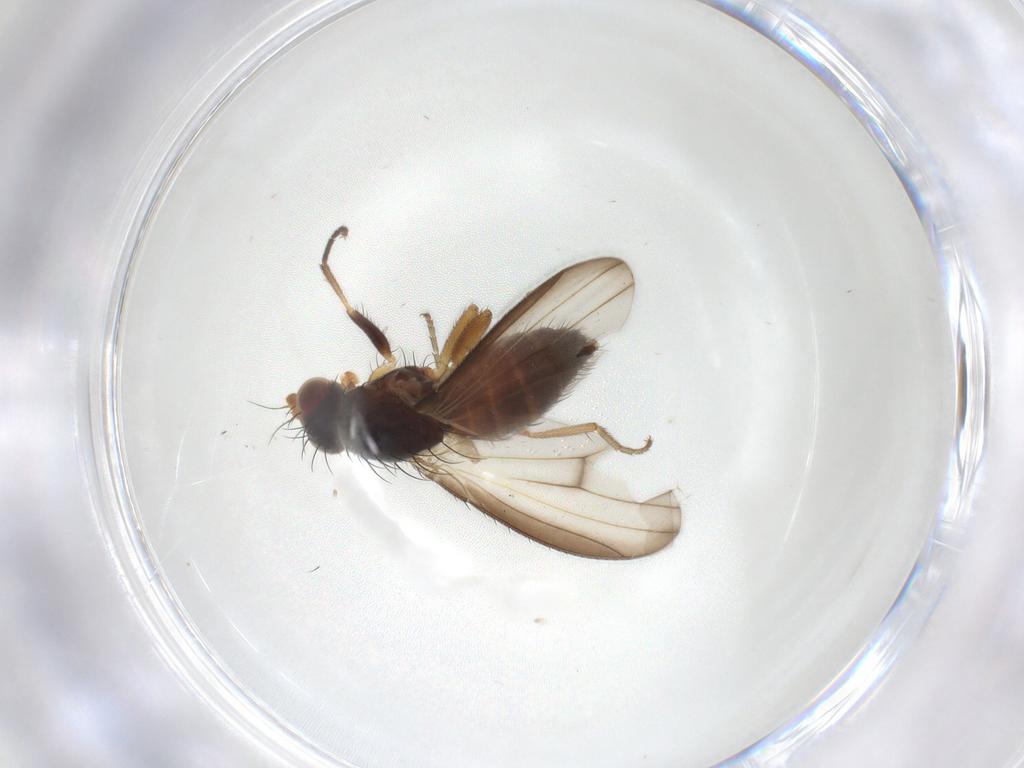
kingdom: Animalia
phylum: Arthropoda
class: Insecta
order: Diptera
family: Heleomyzidae
